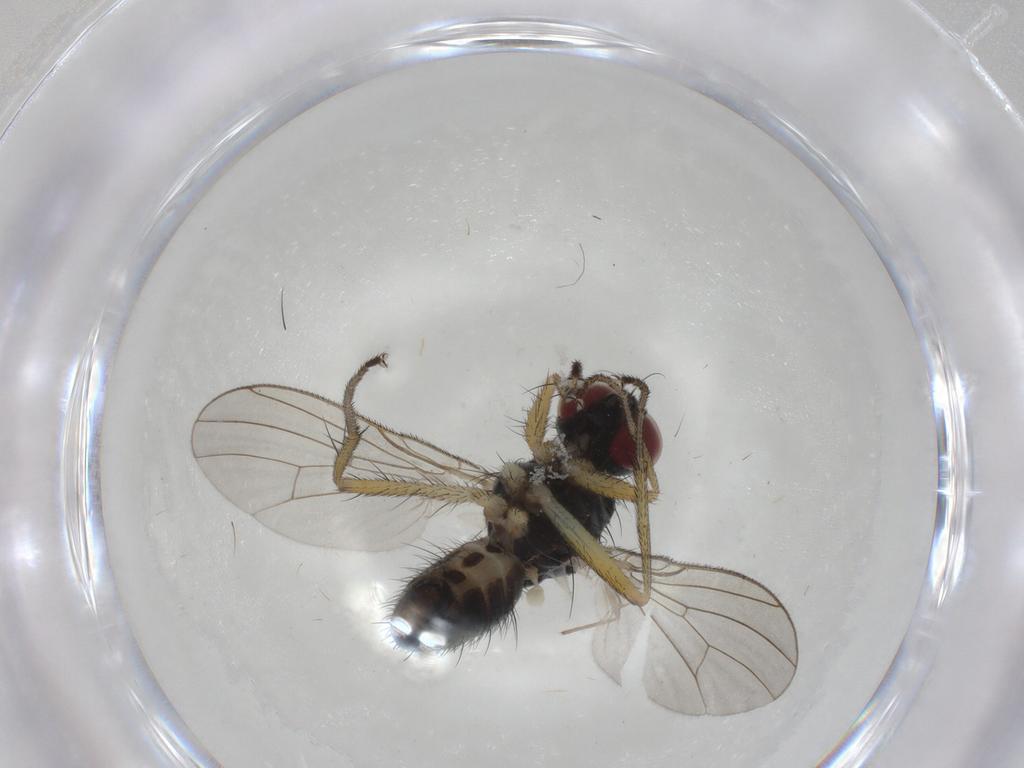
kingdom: Animalia
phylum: Arthropoda
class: Insecta
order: Diptera
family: Muscidae
